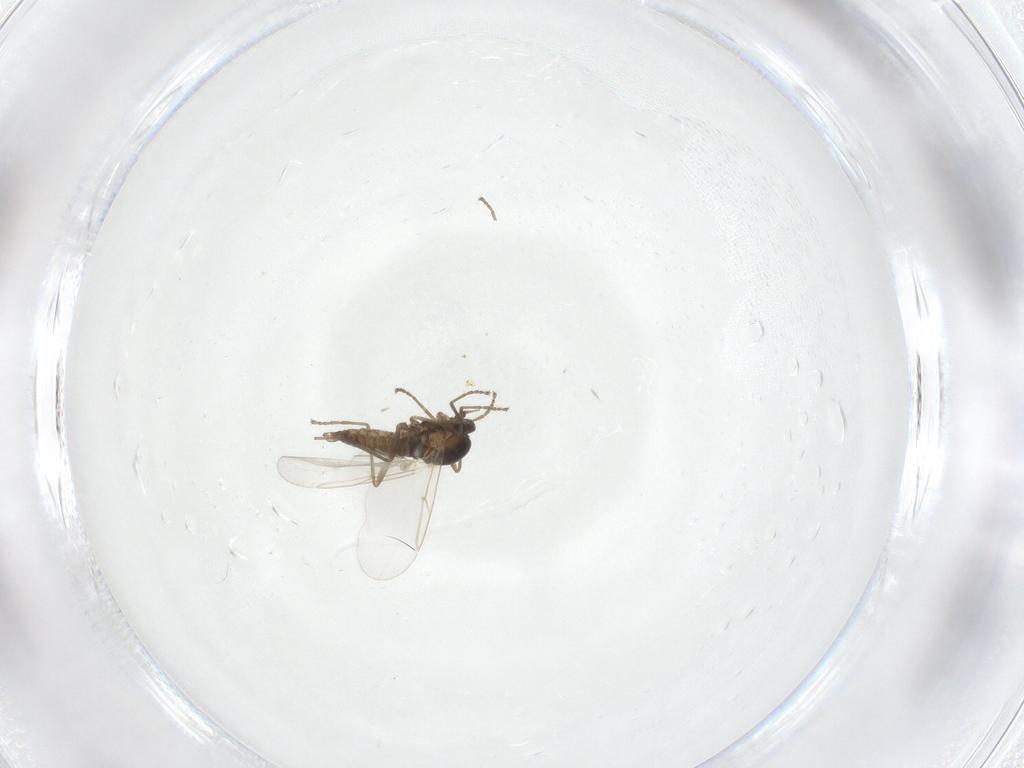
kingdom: Animalia
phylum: Arthropoda
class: Insecta
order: Diptera
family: Cecidomyiidae
